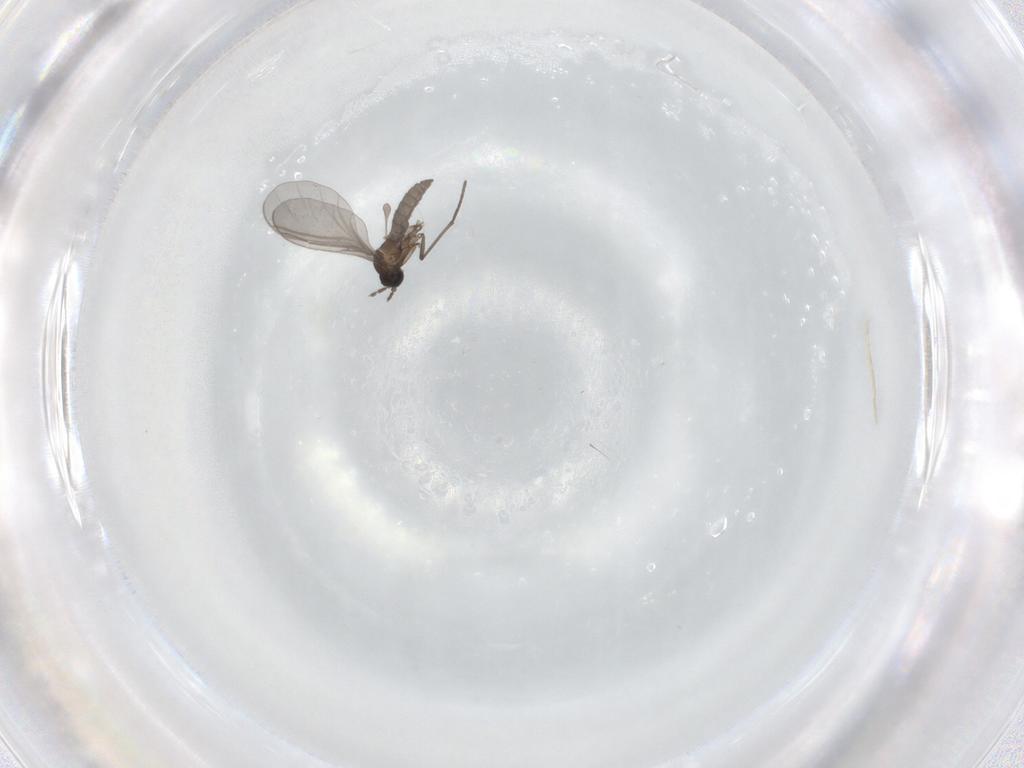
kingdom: Animalia
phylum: Arthropoda
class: Insecta
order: Diptera
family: Sciaridae
